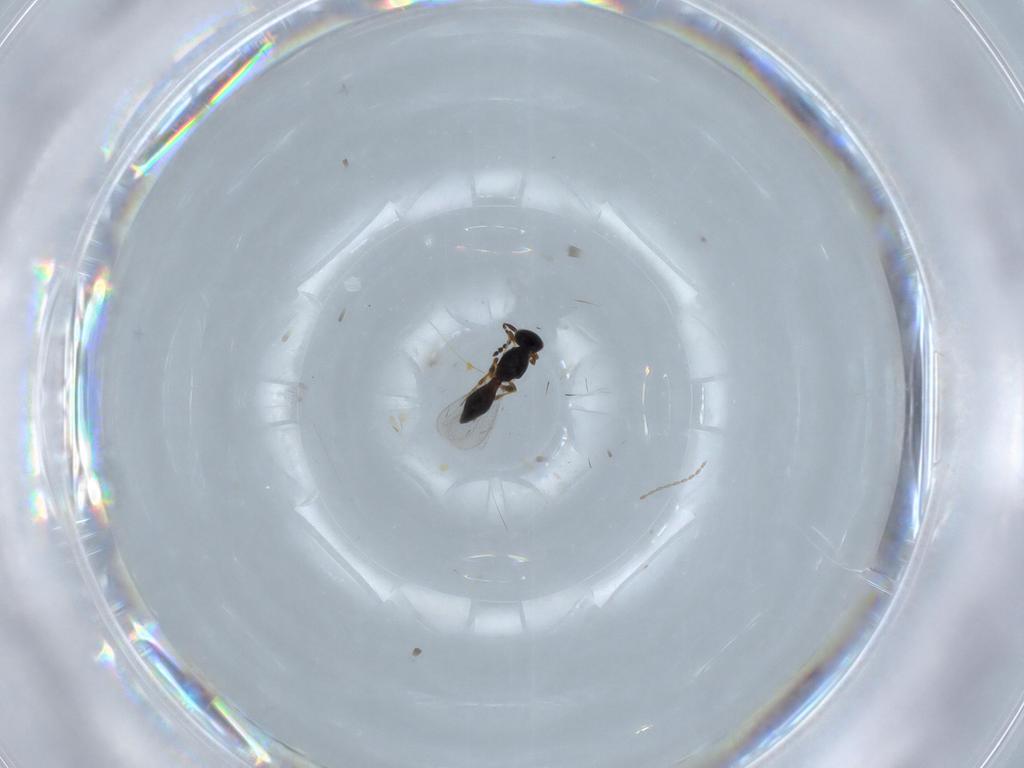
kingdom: Animalia
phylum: Arthropoda
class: Insecta
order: Hymenoptera
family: Platygastridae
